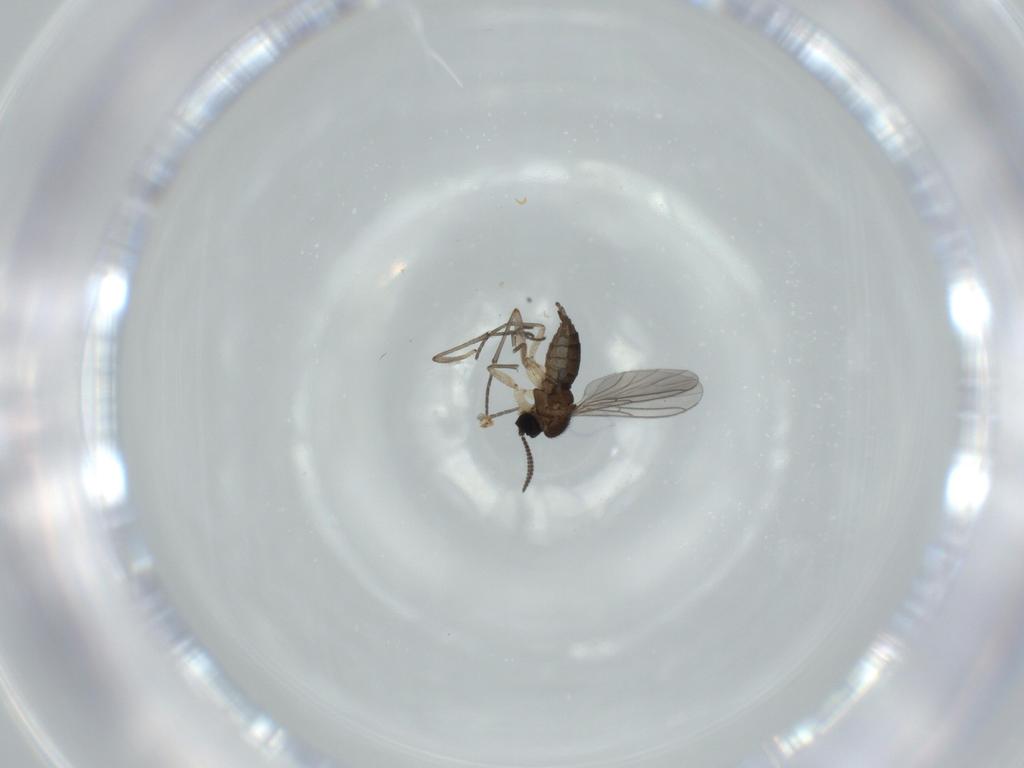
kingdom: Animalia
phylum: Arthropoda
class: Insecta
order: Diptera
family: Sciaridae
